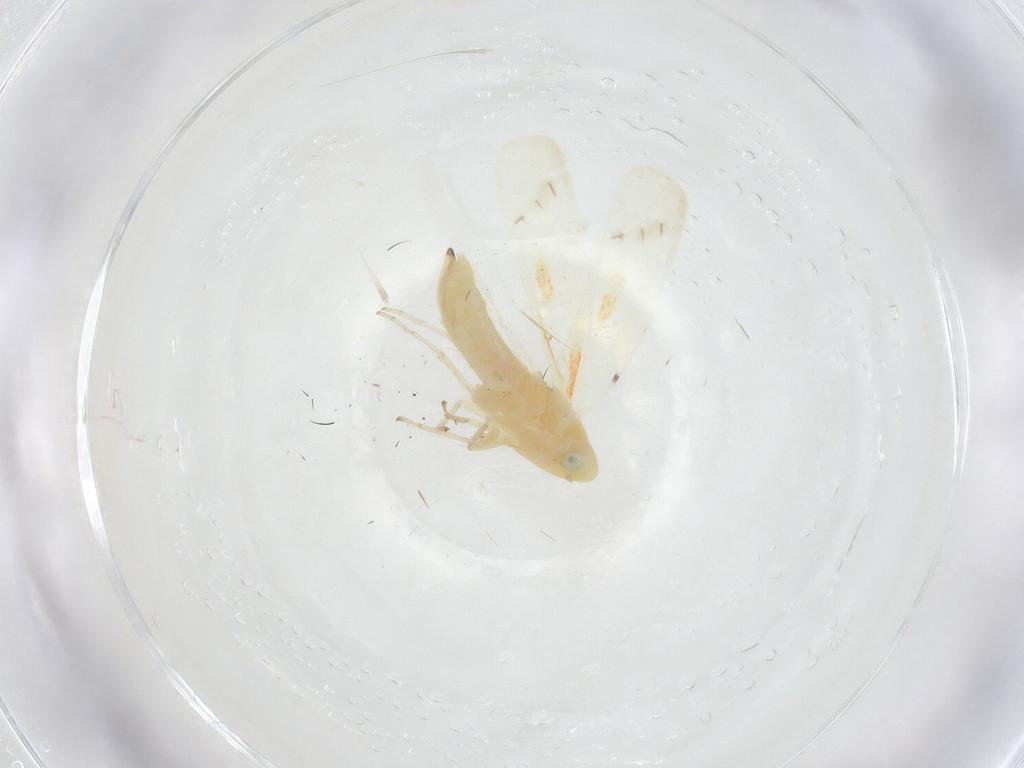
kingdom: Animalia
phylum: Arthropoda
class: Insecta
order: Hemiptera
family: Cicadellidae
